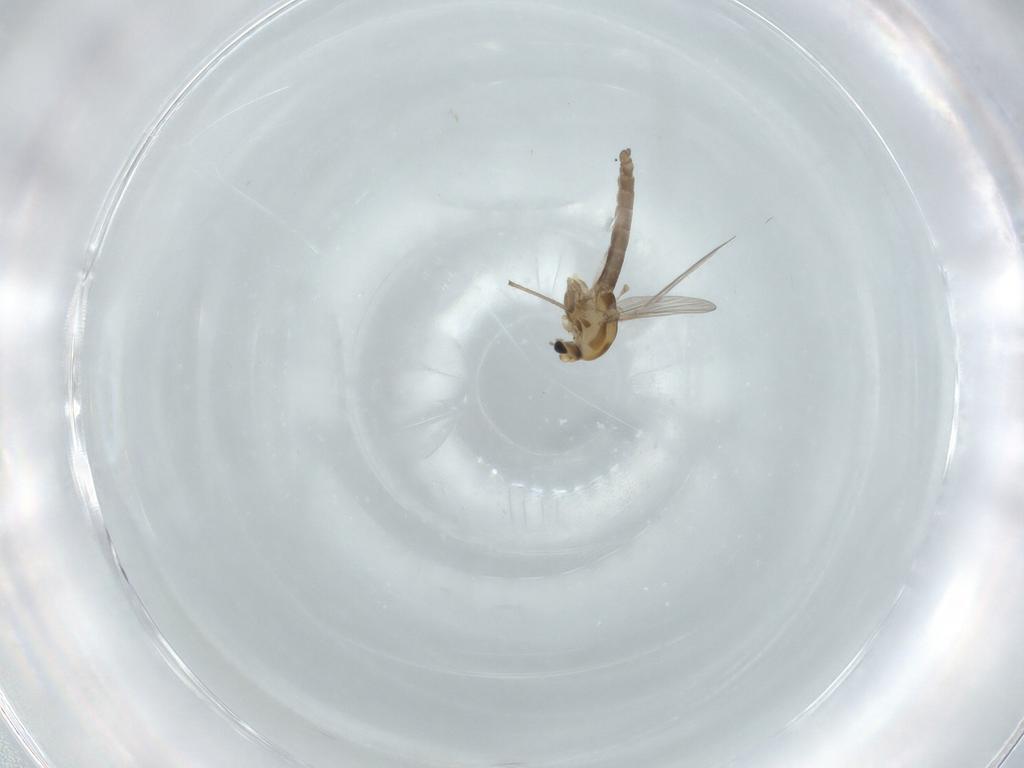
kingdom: Animalia
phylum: Arthropoda
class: Insecta
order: Diptera
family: Chironomidae
